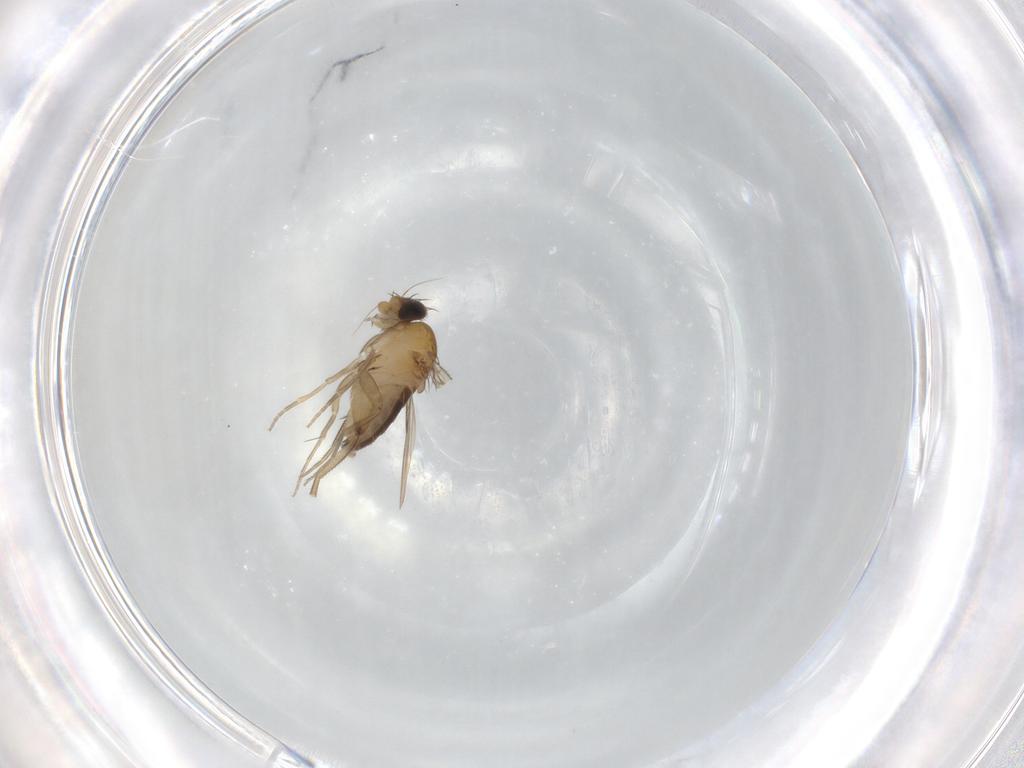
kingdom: Animalia
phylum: Arthropoda
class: Insecta
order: Diptera
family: Phoridae
